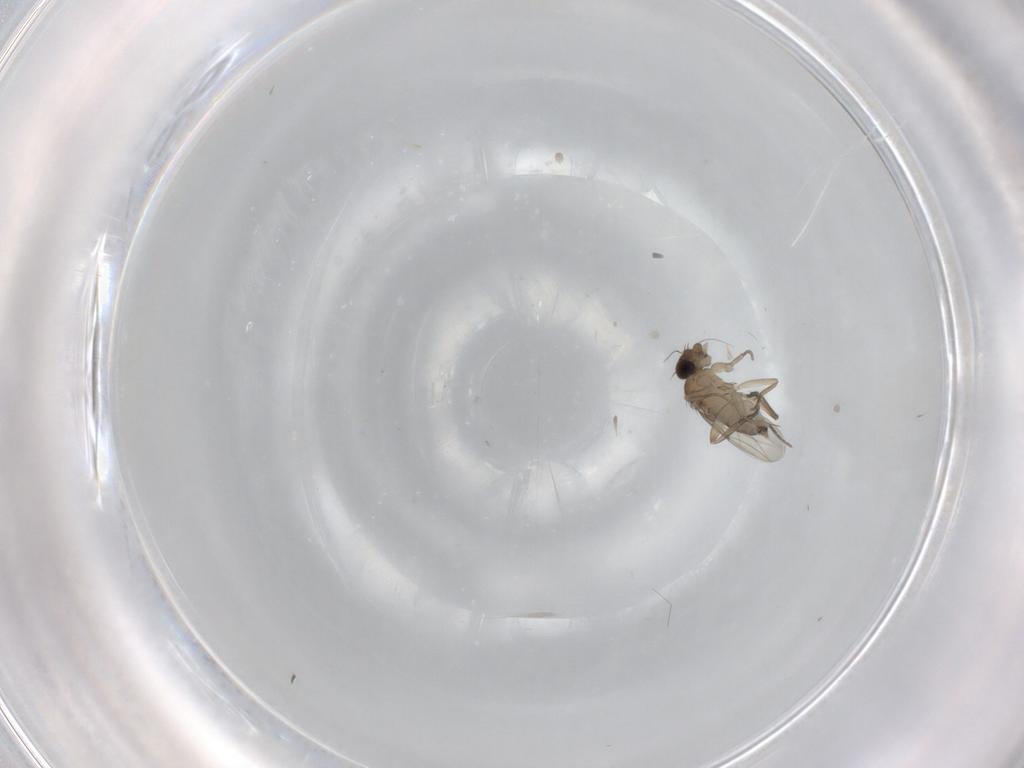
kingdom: Animalia
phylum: Arthropoda
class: Insecta
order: Diptera
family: Phoridae
